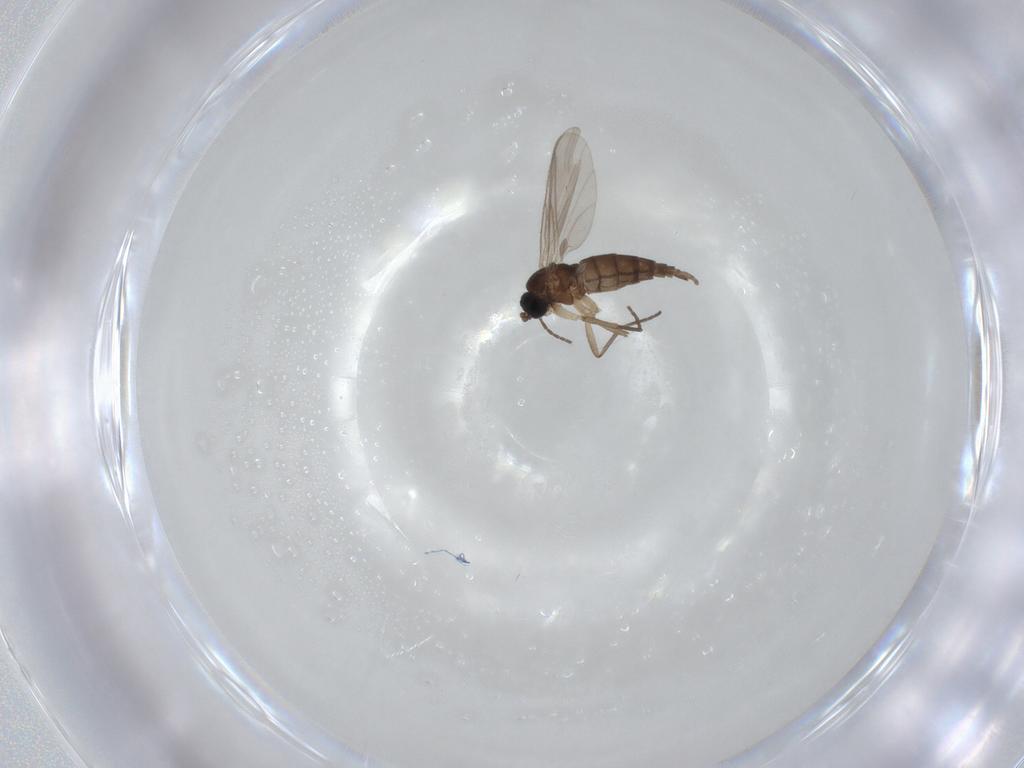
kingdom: Animalia
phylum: Arthropoda
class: Insecta
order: Diptera
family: Sciaridae
